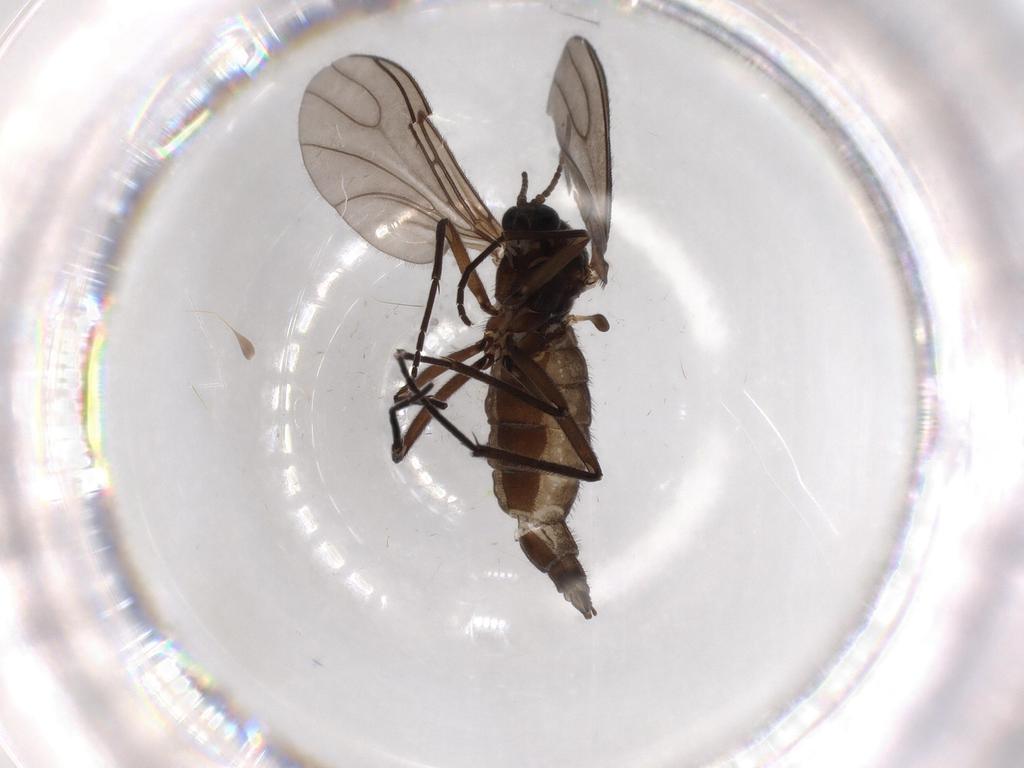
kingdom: Animalia
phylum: Arthropoda
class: Insecta
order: Diptera
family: Sciaridae
